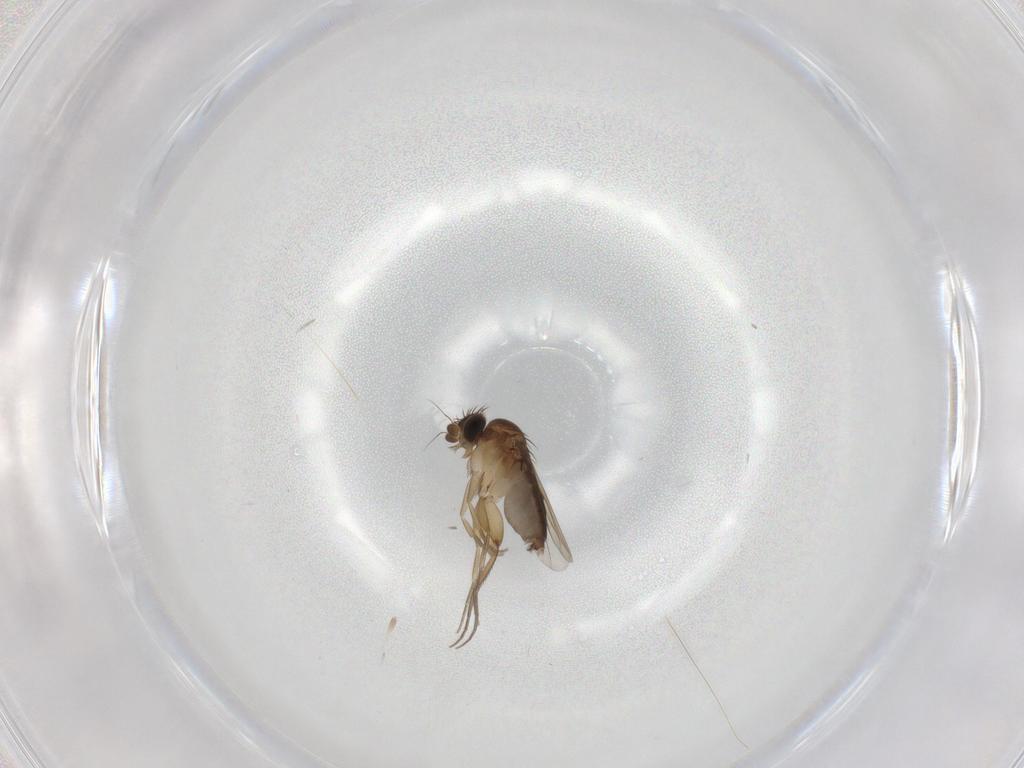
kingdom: Animalia
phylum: Arthropoda
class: Insecta
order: Diptera
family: Phoridae
